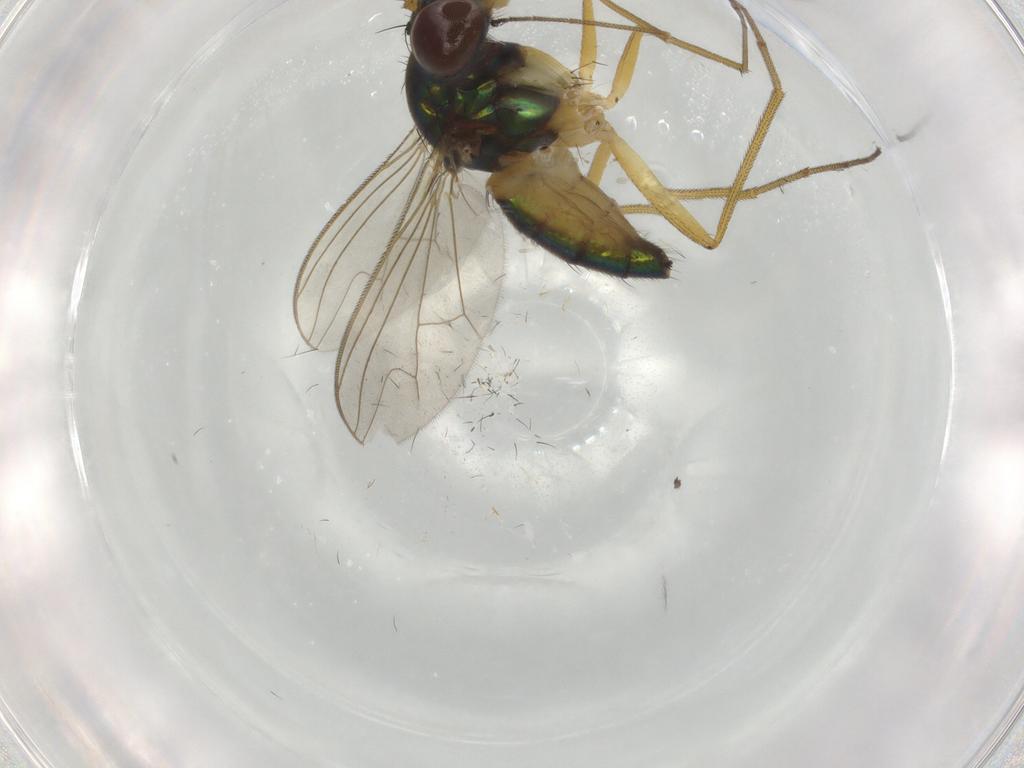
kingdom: Animalia
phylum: Arthropoda
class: Insecta
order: Diptera
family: Dolichopodidae
